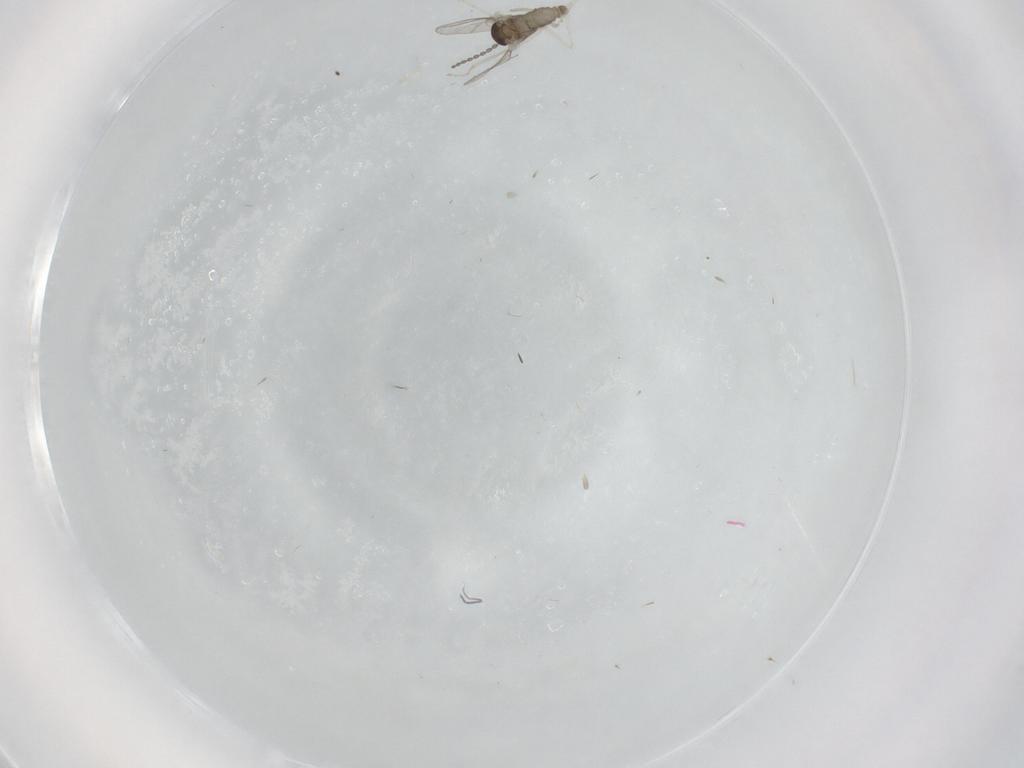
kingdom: Animalia
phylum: Arthropoda
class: Insecta
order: Diptera
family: Cecidomyiidae
